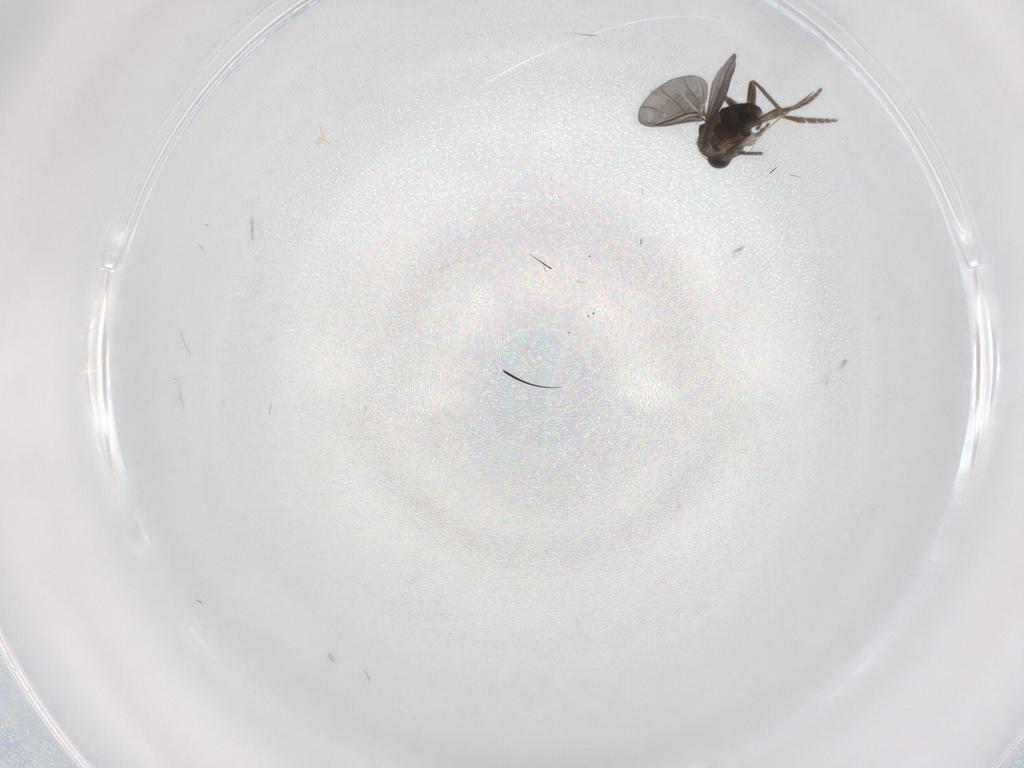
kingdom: Animalia
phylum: Arthropoda
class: Insecta
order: Diptera
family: Phoridae
